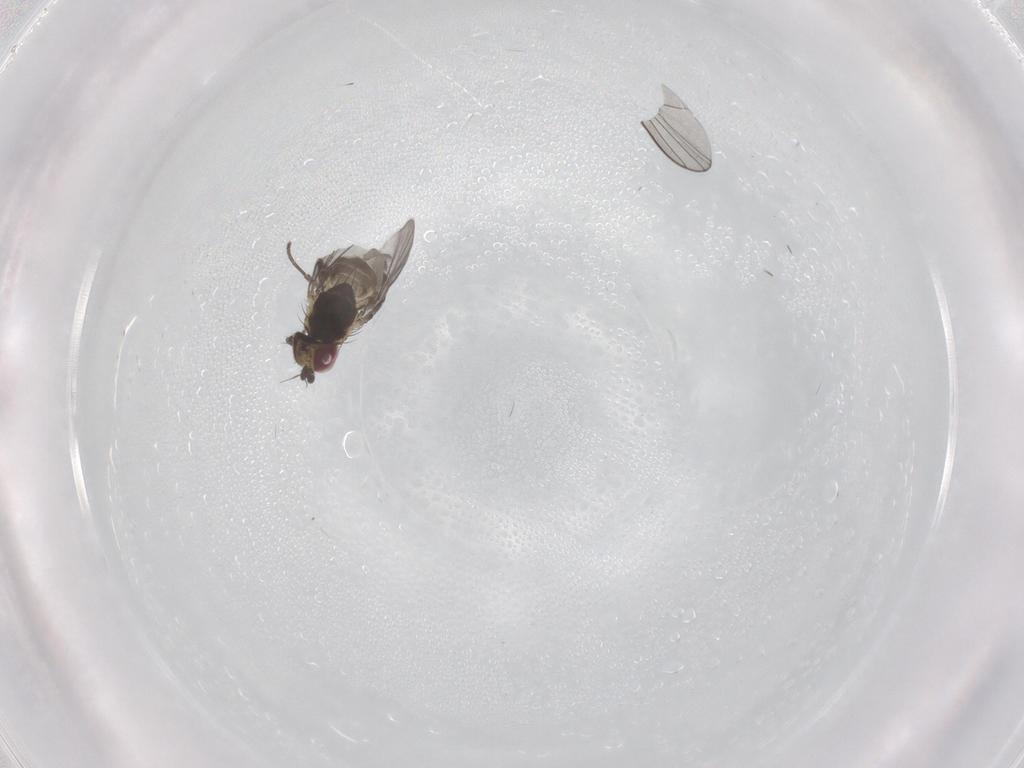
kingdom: Animalia
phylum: Arthropoda
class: Insecta
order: Diptera
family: Agromyzidae
